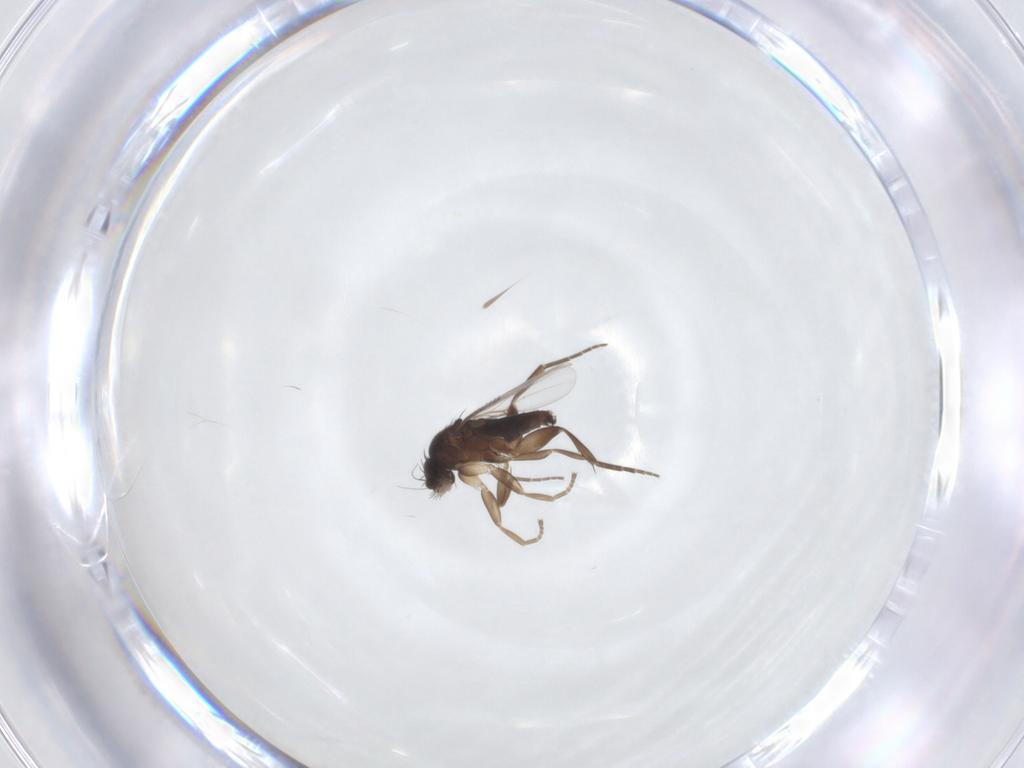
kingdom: Animalia
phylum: Arthropoda
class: Insecta
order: Diptera
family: Phoridae
